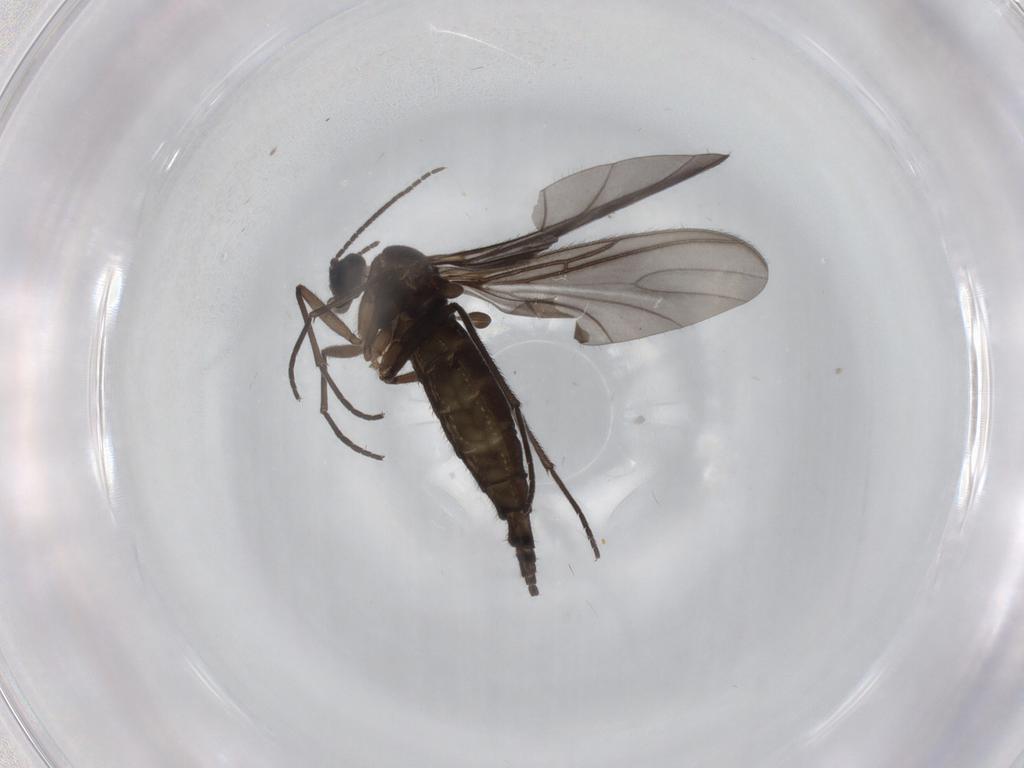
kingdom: Animalia
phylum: Arthropoda
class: Insecta
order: Diptera
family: Sciaridae
